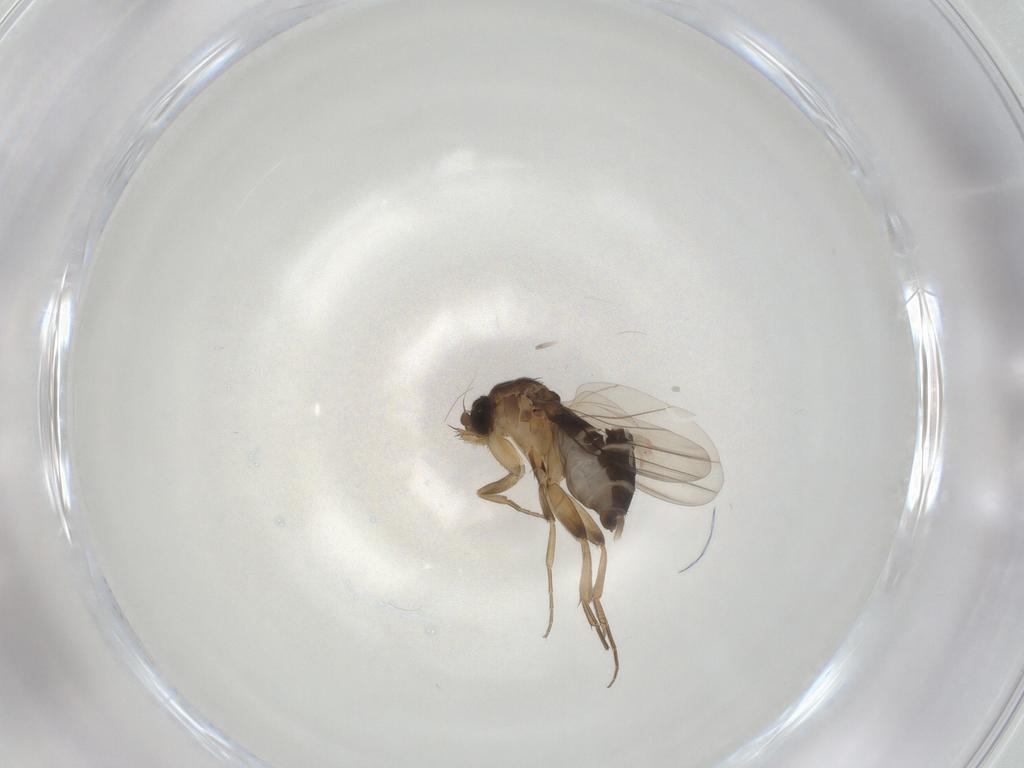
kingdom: Animalia
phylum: Arthropoda
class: Insecta
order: Diptera
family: Phoridae
